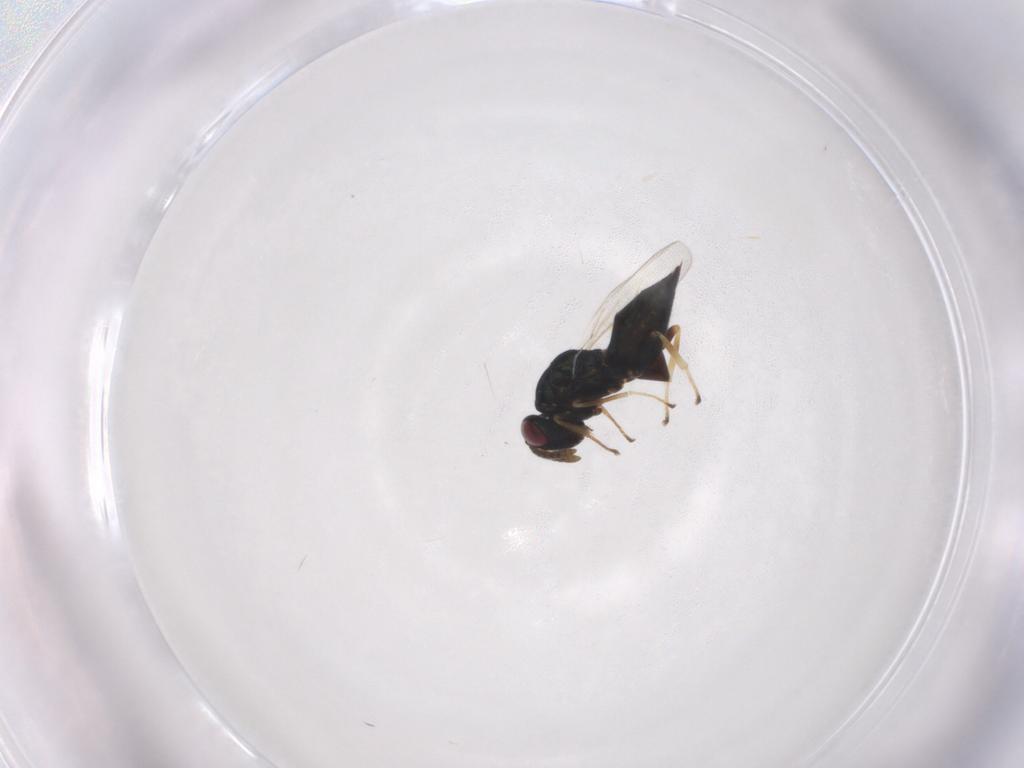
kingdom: Animalia
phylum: Arthropoda
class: Insecta
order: Hymenoptera
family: Pteromalidae
